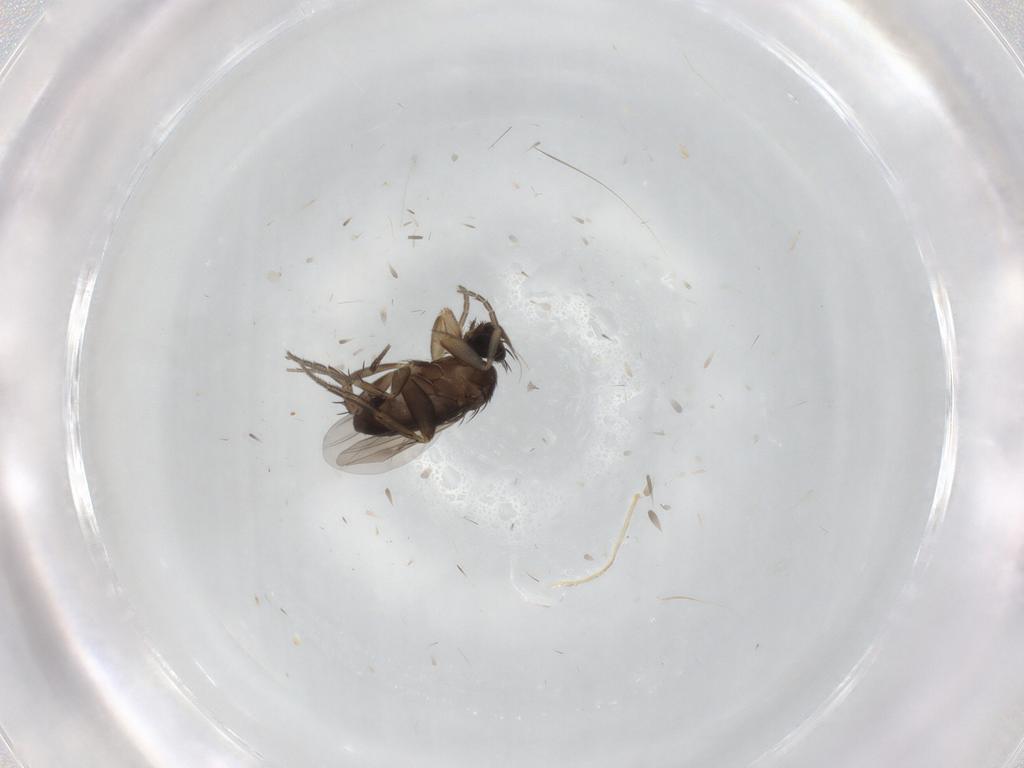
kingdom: Animalia
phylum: Arthropoda
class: Insecta
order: Diptera
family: Phoridae
